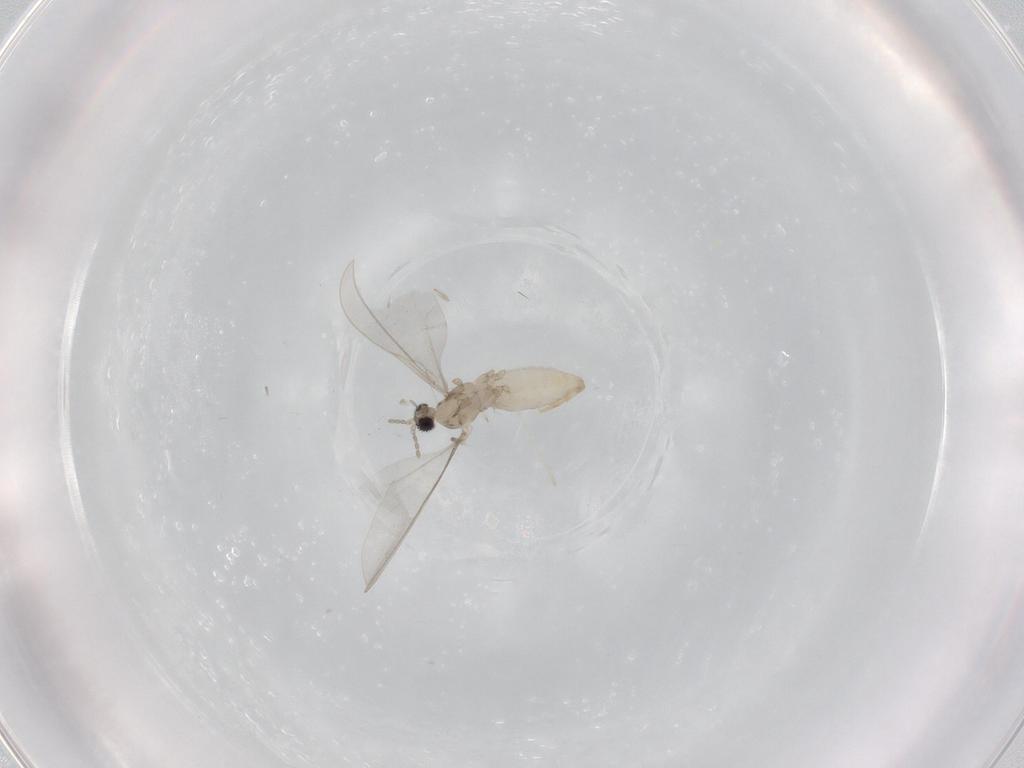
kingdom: Animalia
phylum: Arthropoda
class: Insecta
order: Diptera
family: Cecidomyiidae
